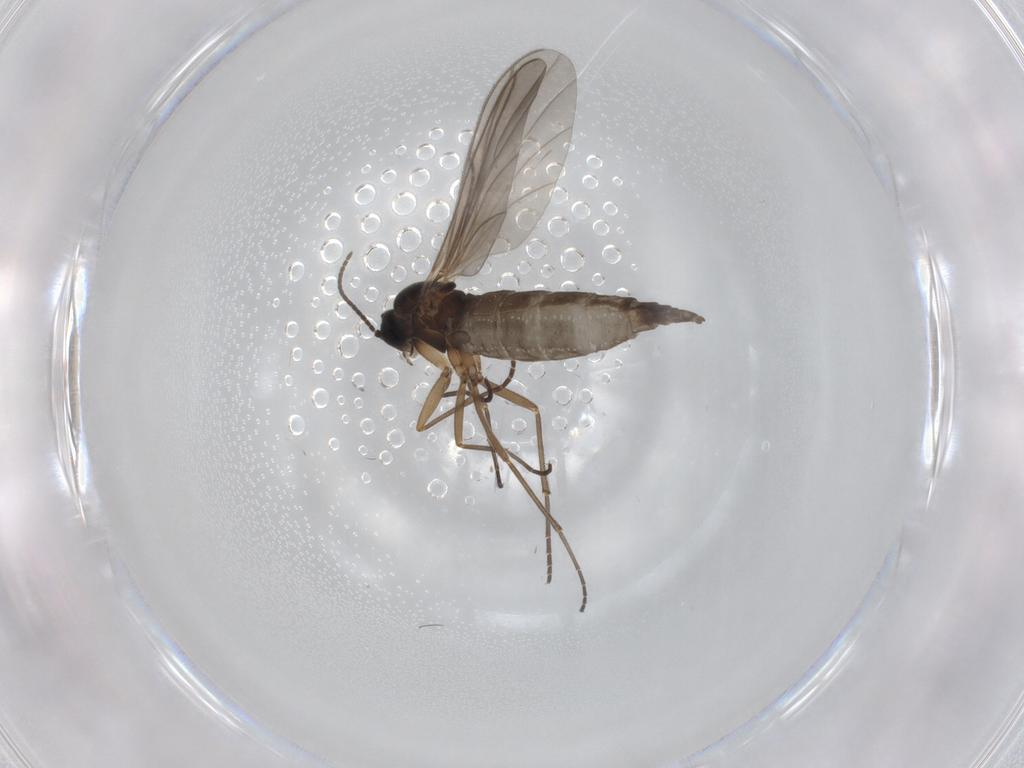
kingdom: Animalia
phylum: Arthropoda
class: Insecta
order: Diptera
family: Sciaridae
